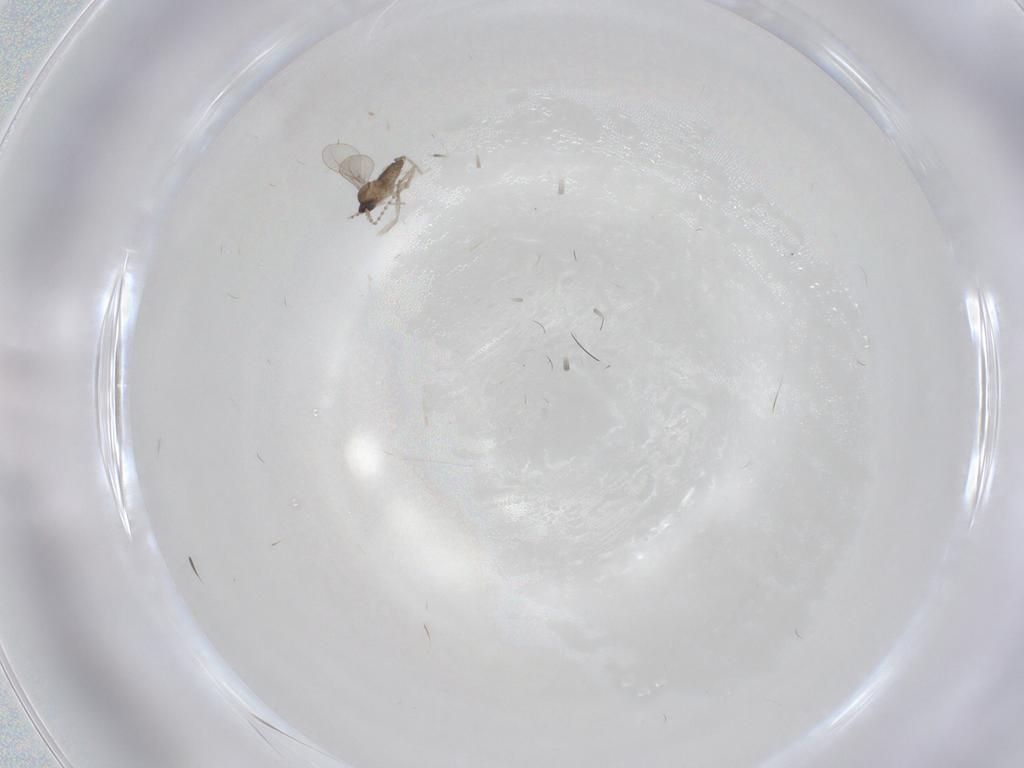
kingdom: Animalia
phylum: Arthropoda
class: Insecta
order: Diptera
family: Cecidomyiidae
